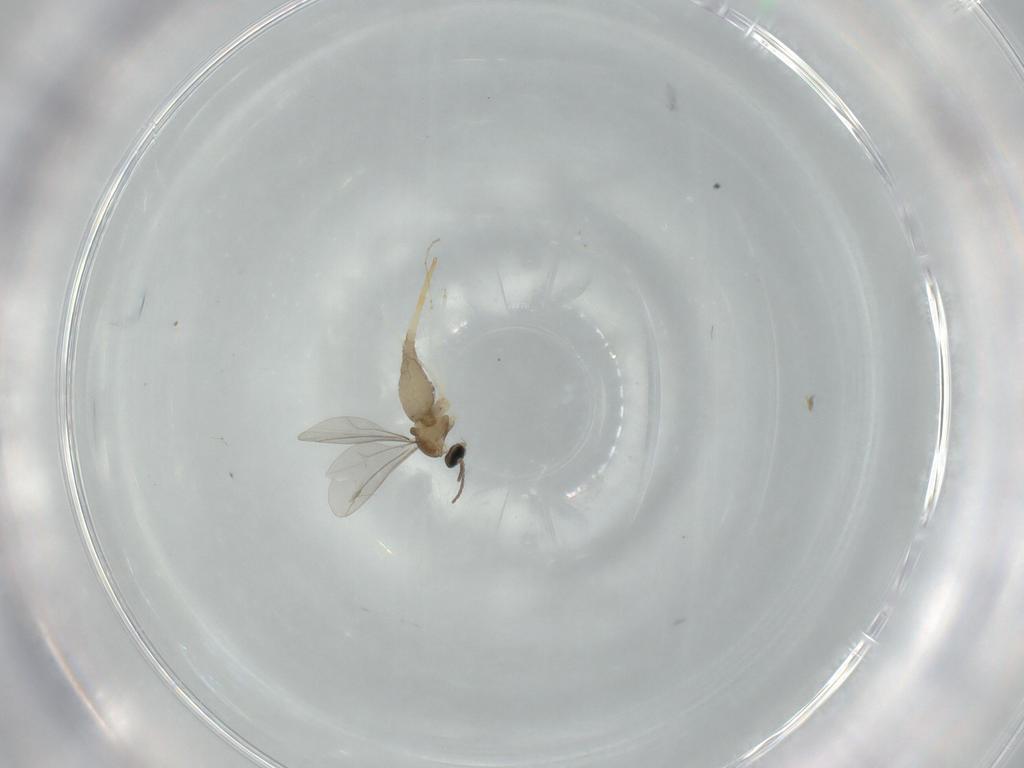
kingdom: Animalia
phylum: Arthropoda
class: Insecta
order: Diptera
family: Cecidomyiidae
